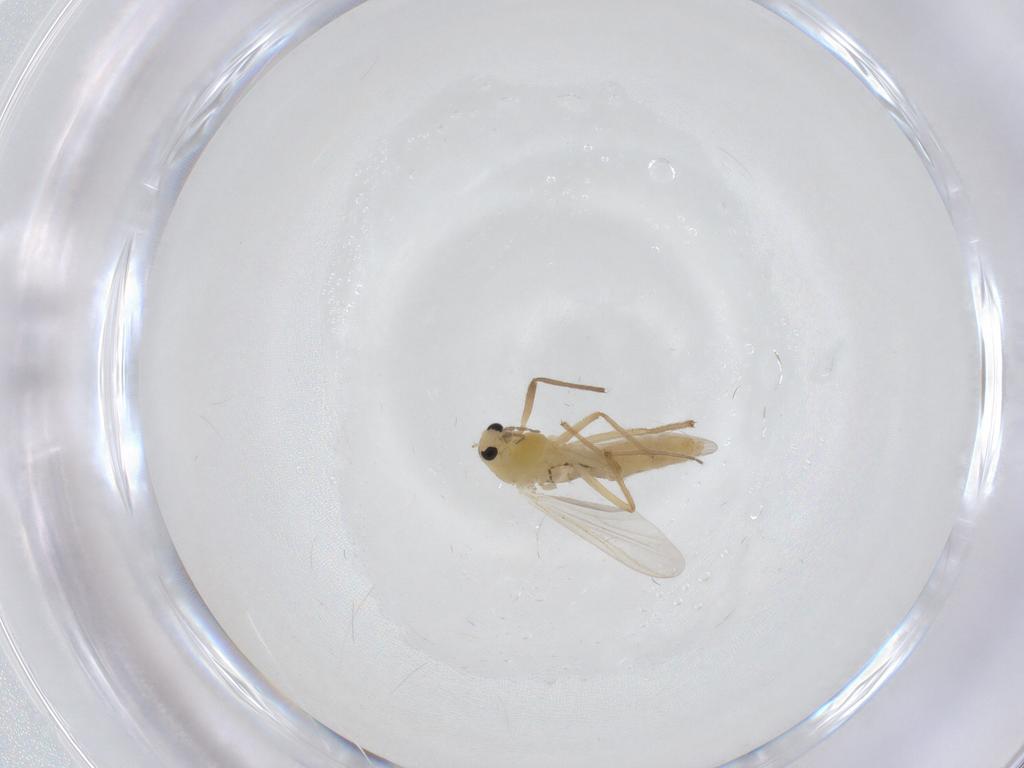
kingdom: Animalia
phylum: Arthropoda
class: Insecta
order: Diptera
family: Chironomidae
